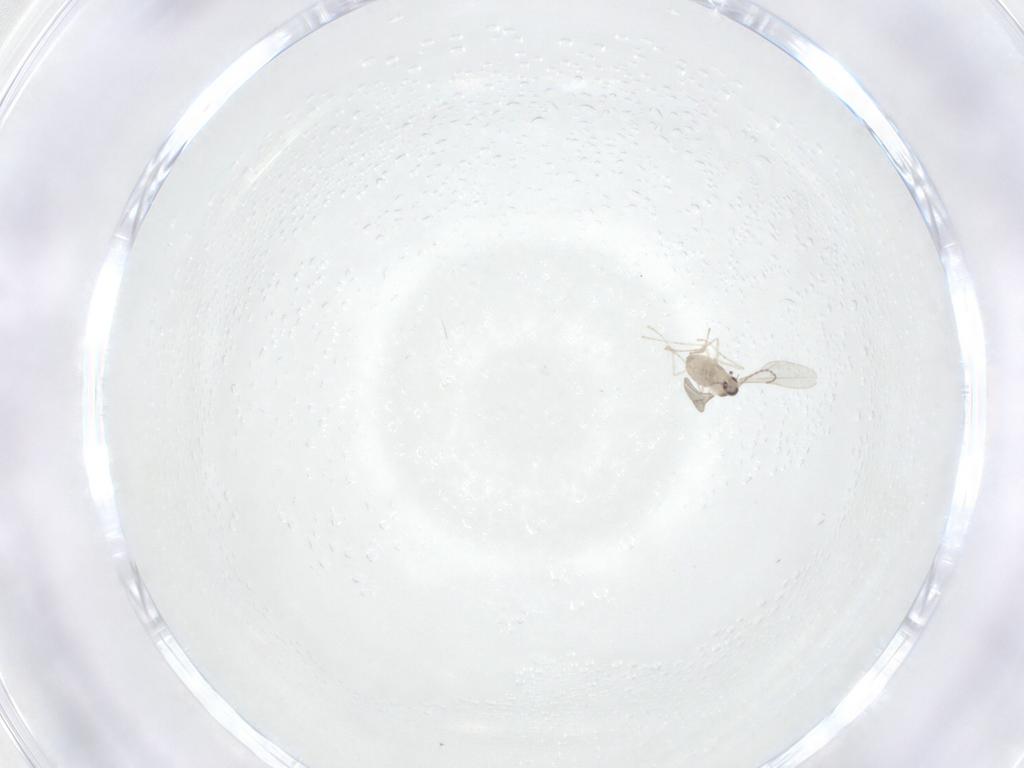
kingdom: Animalia
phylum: Arthropoda
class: Insecta
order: Diptera
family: Cecidomyiidae
